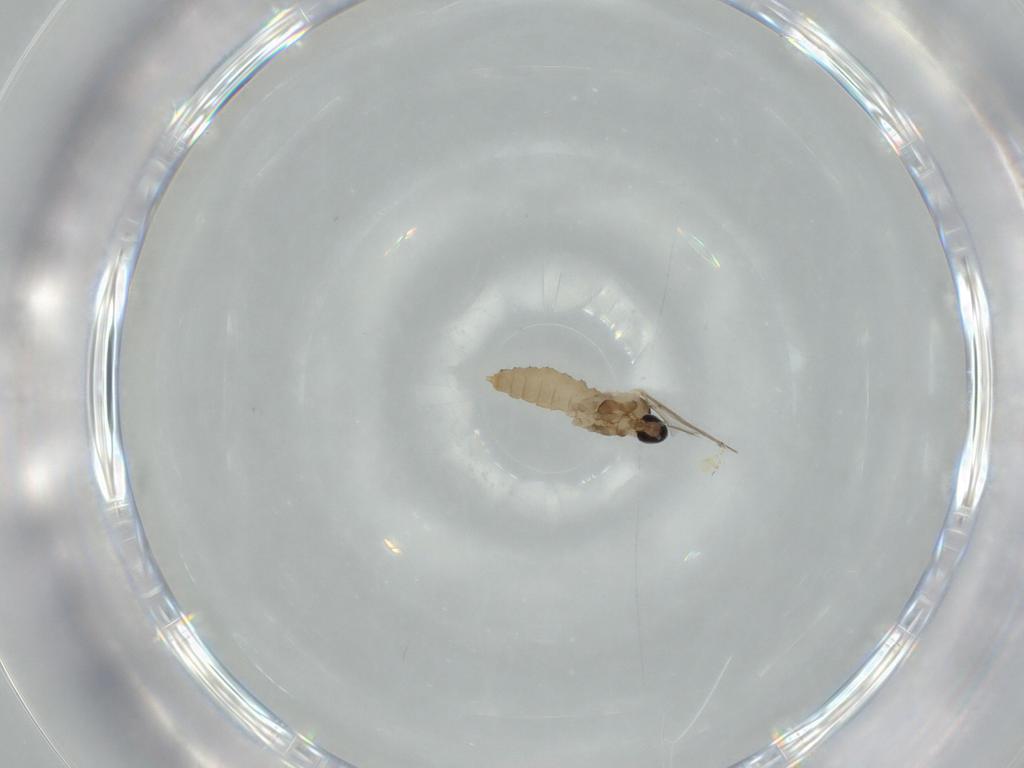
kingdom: Animalia
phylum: Arthropoda
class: Insecta
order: Diptera
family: Cecidomyiidae
